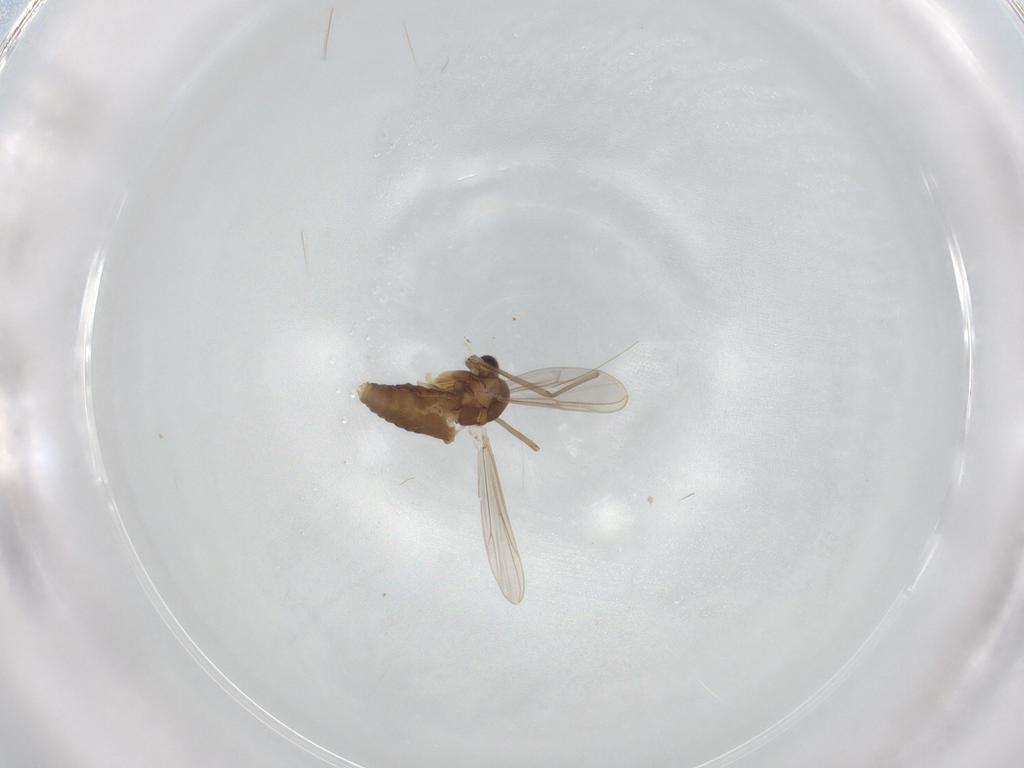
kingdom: Animalia
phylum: Arthropoda
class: Insecta
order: Diptera
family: Chironomidae
